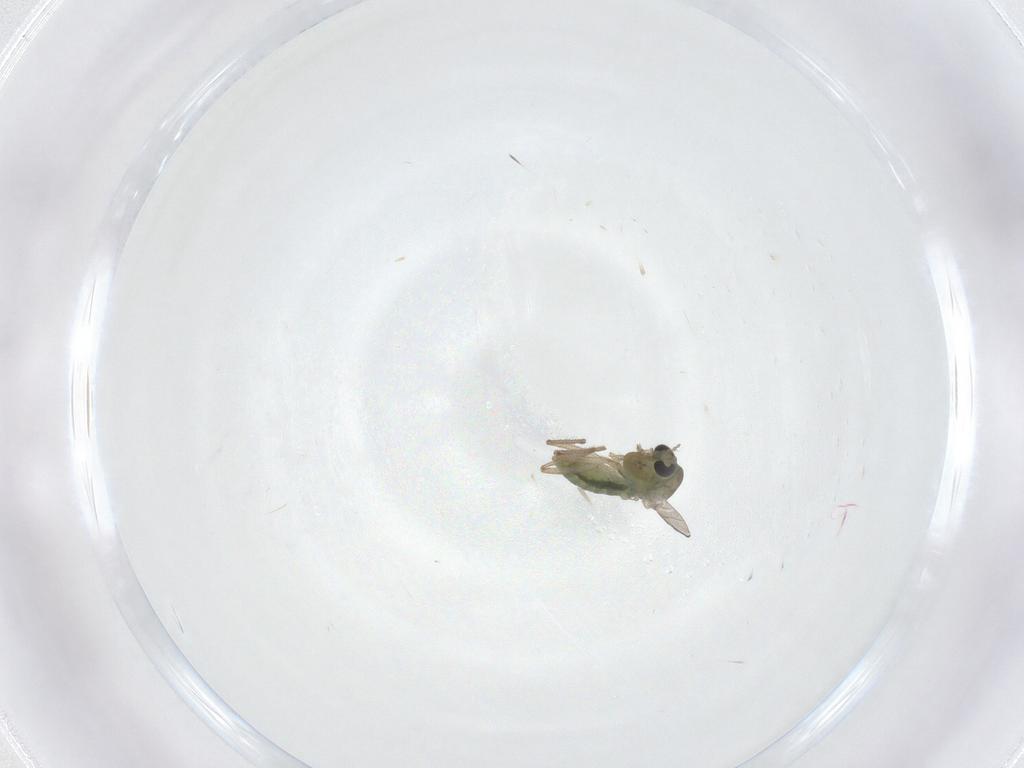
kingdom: Animalia
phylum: Arthropoda
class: Insecta
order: Diptera
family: Chironomidae
